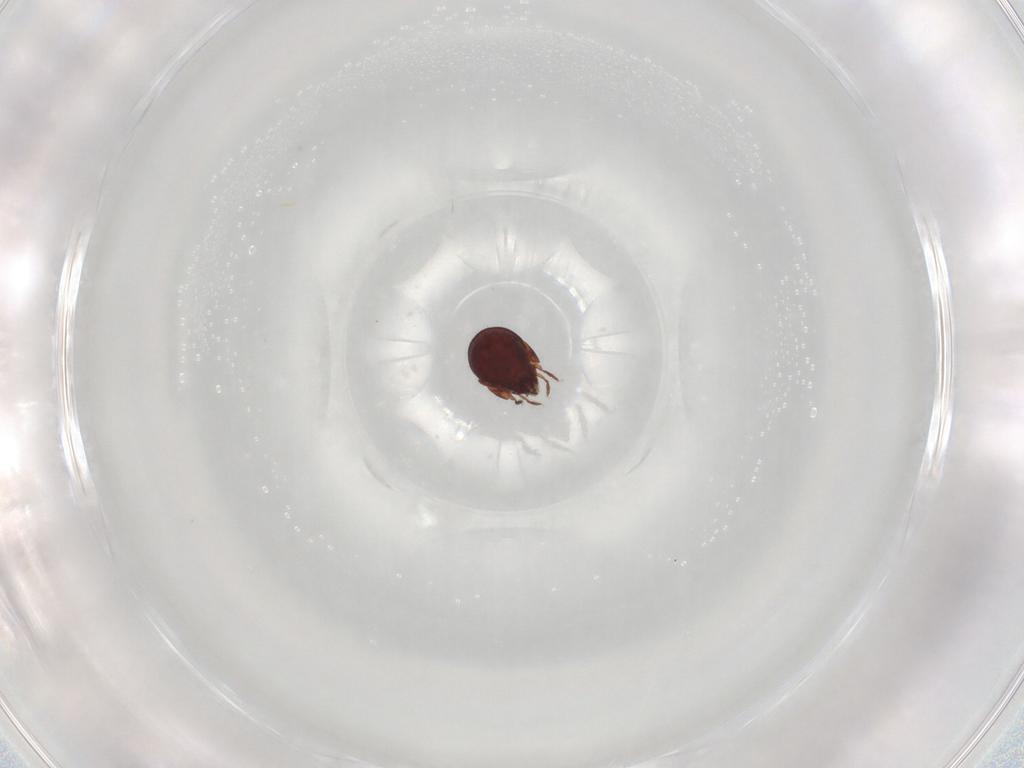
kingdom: Animalia
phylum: Arthropoda
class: Arachnida
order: Sarcoptiformes
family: Humerobatidae
